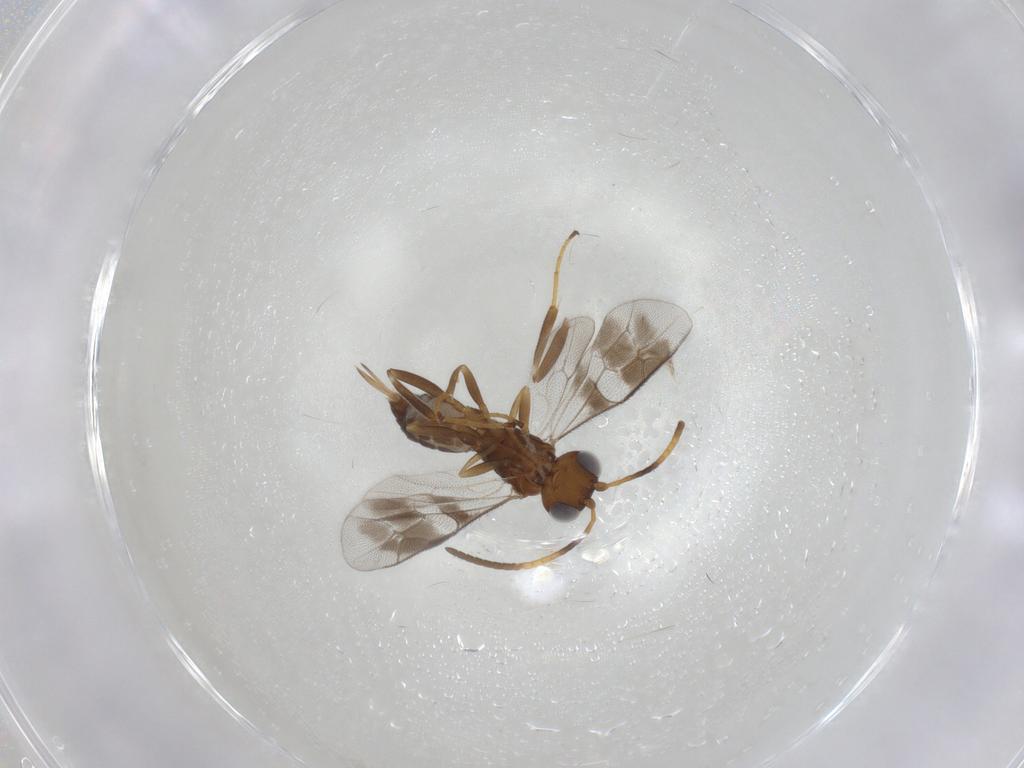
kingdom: Animalia
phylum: Arthropoda
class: Insecta
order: Hymenoptera
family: Ichneumonidae
